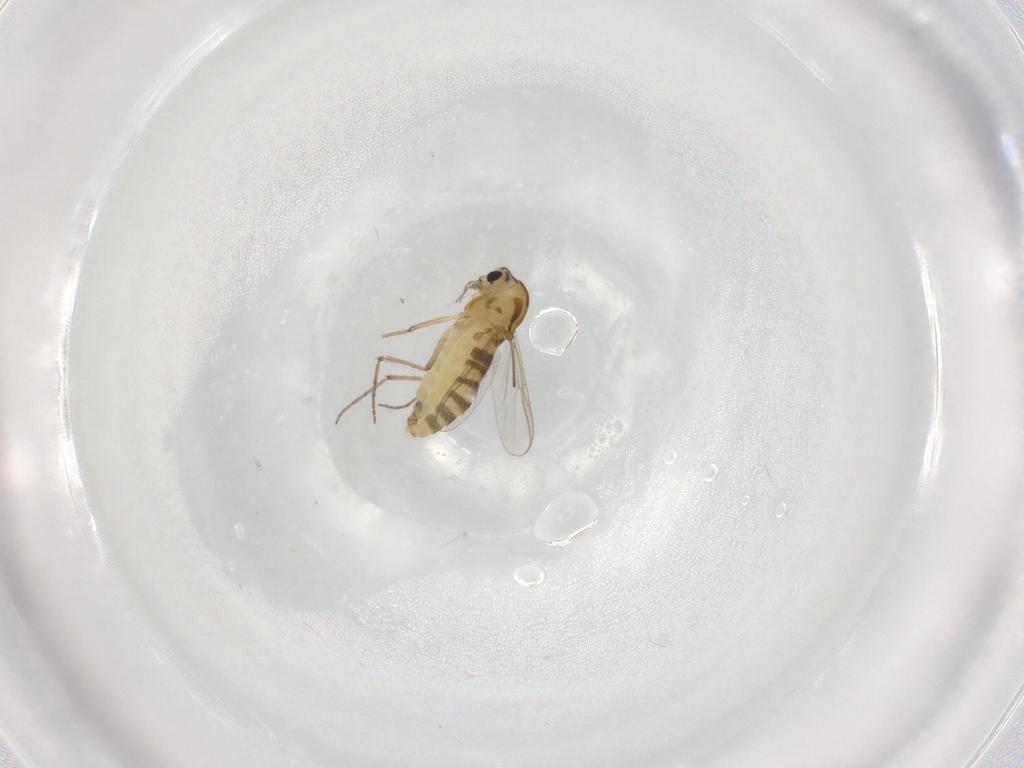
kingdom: Animalia
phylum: Arthropoda
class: Insecta
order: Diptera
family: Chironomidae
